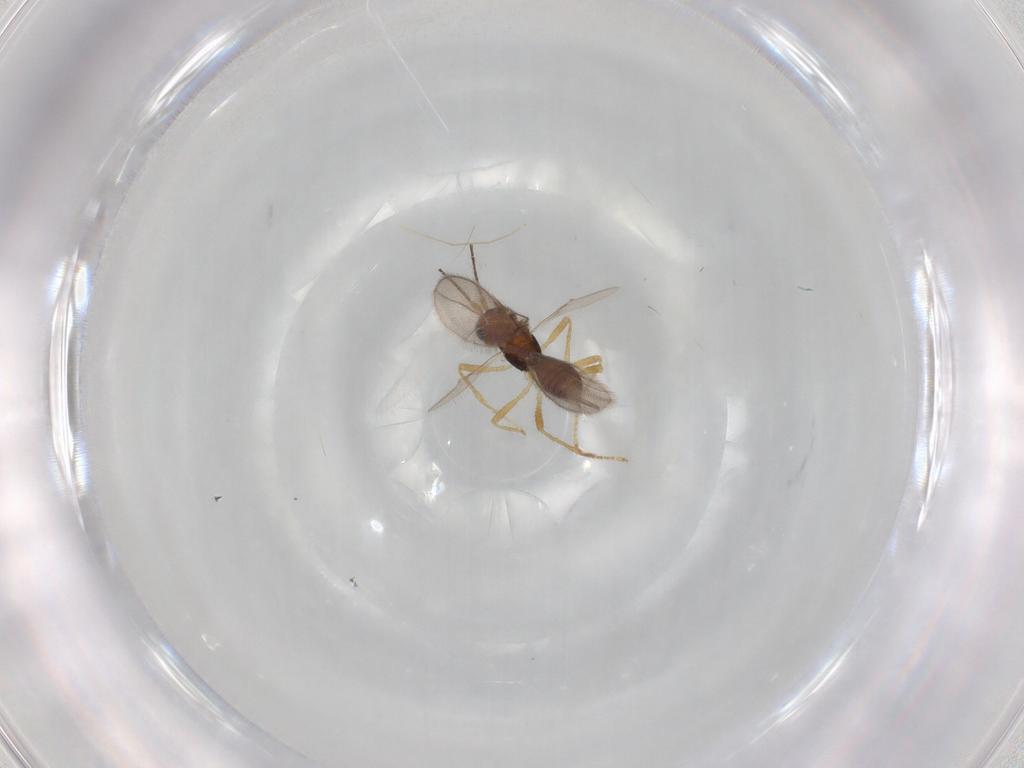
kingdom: Animalia
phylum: Arthropoda
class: Insecta
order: Hymenoptera
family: Braconidae
